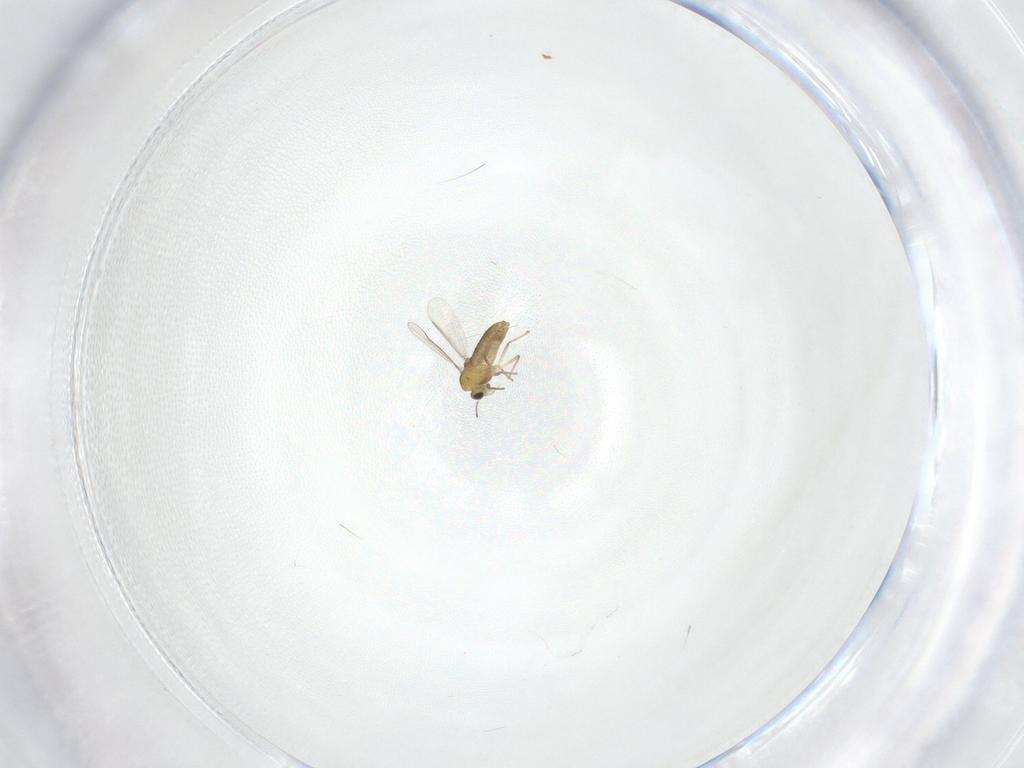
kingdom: Animalia
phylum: Arthropoda
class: Insecta
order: Diptera
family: Chironomidae
